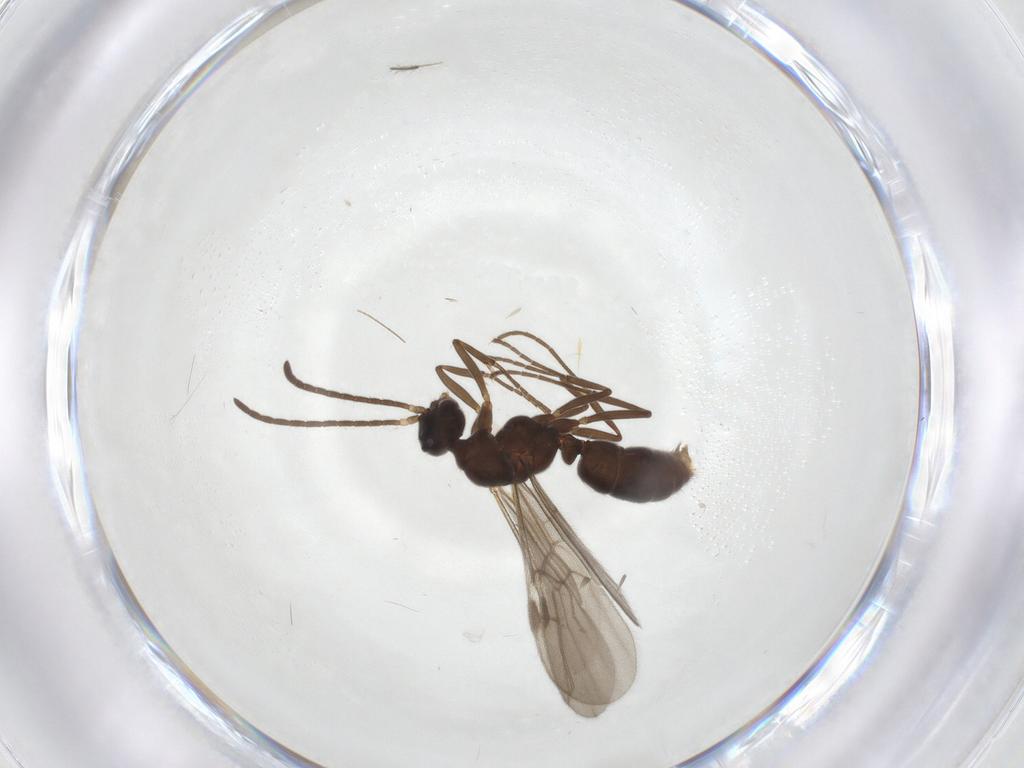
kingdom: Animalia
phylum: Arthropoda
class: Insecta
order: Hymenoptera
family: Formicidae
